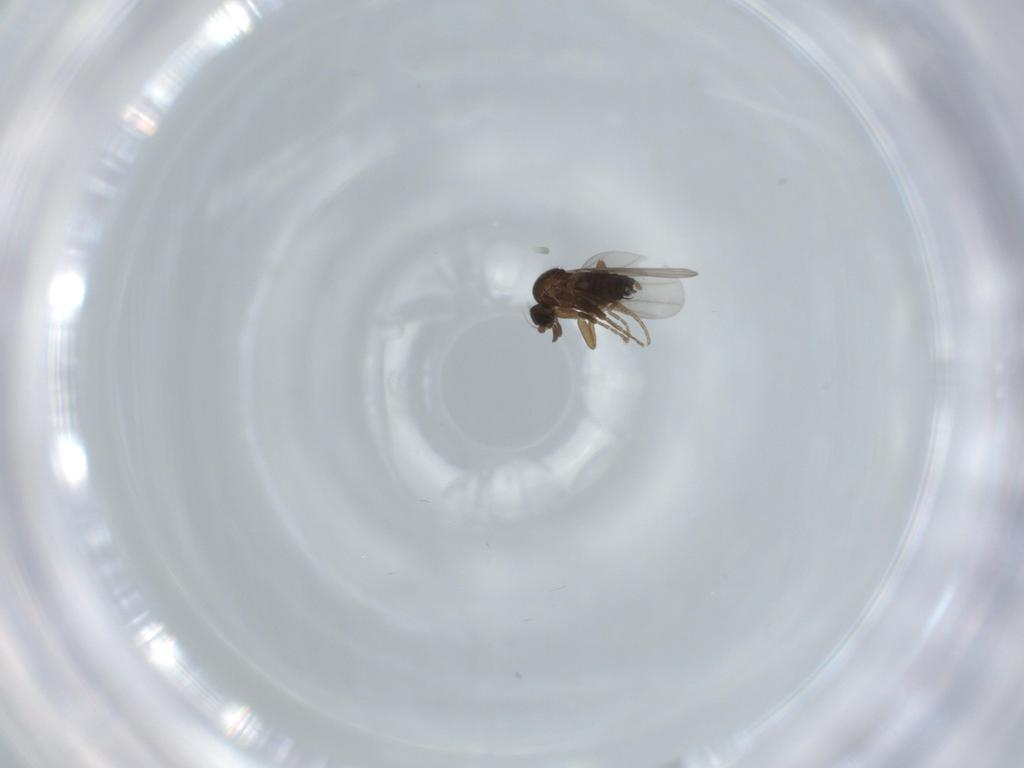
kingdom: Animalia
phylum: Arthropoda
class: Insecta
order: Diptera
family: Phoridae
